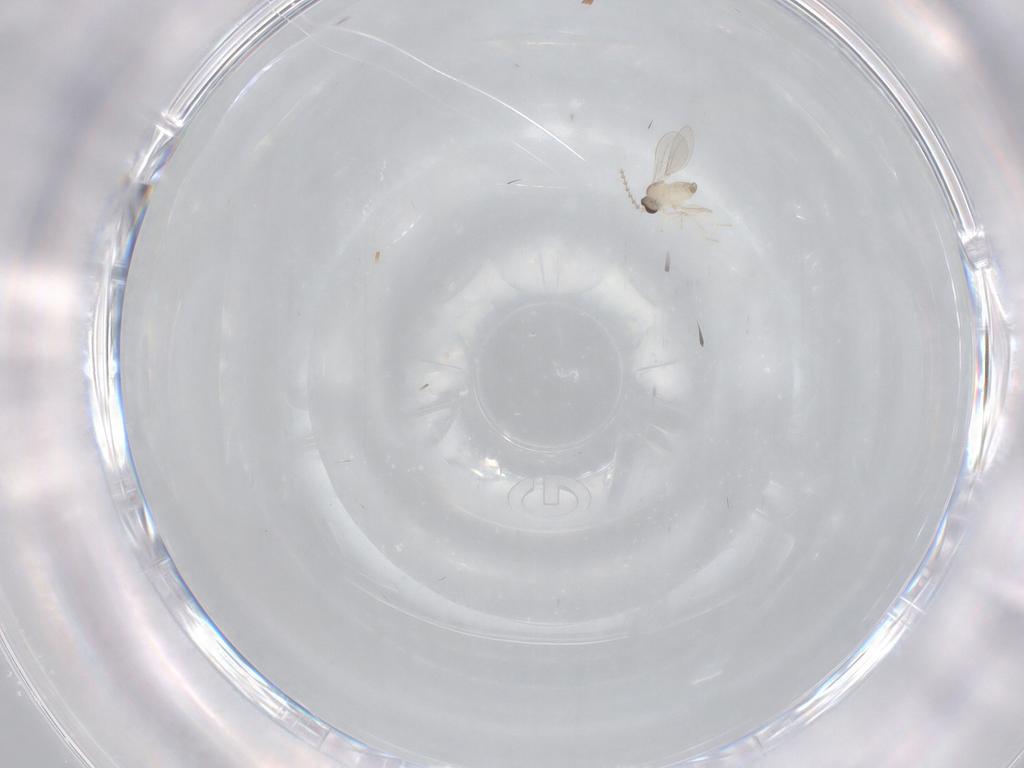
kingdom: Animalia
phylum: Arthropoda
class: Insecta
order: Diptera
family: Cecidomyiidae
